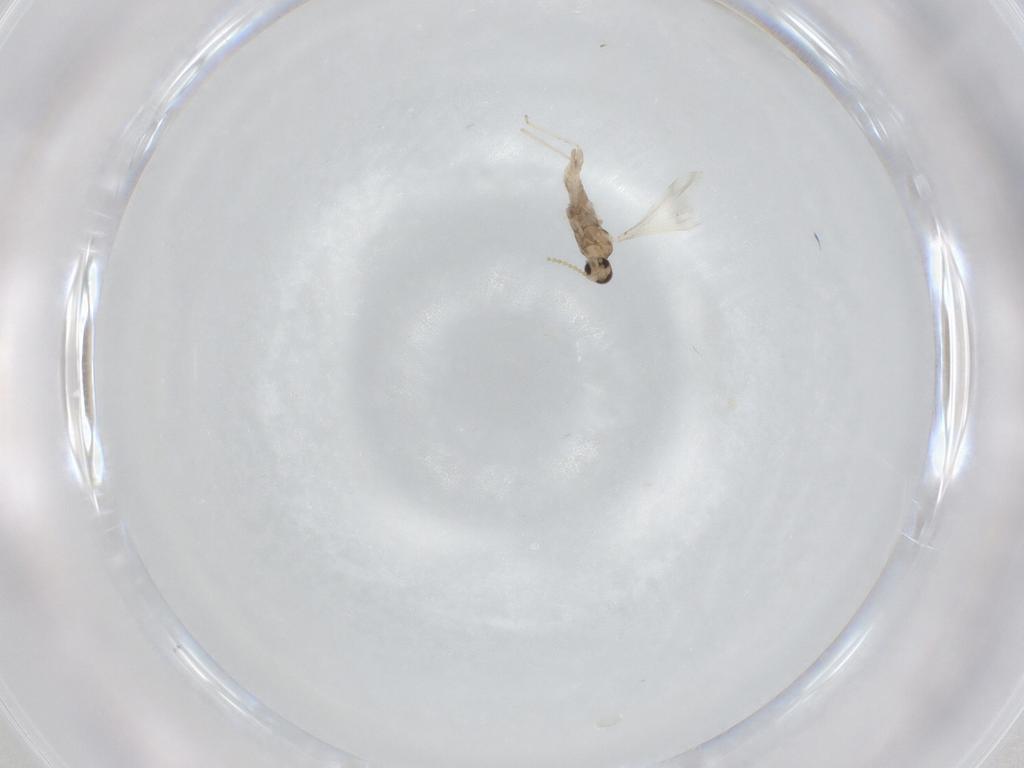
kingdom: Animalia
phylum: Arthropoda
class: Insecta
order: Diptera
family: Cecidomyiidae
